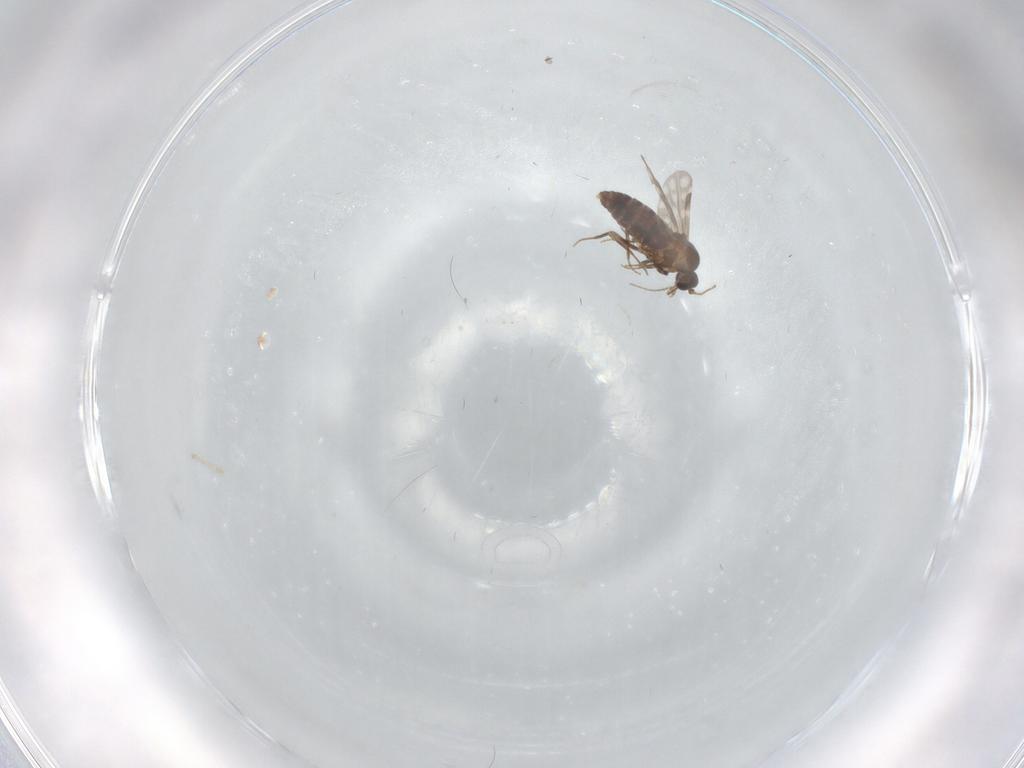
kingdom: Animalia
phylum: Arthropoda
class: Insecta
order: Diptera
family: Ceratopogonidae
